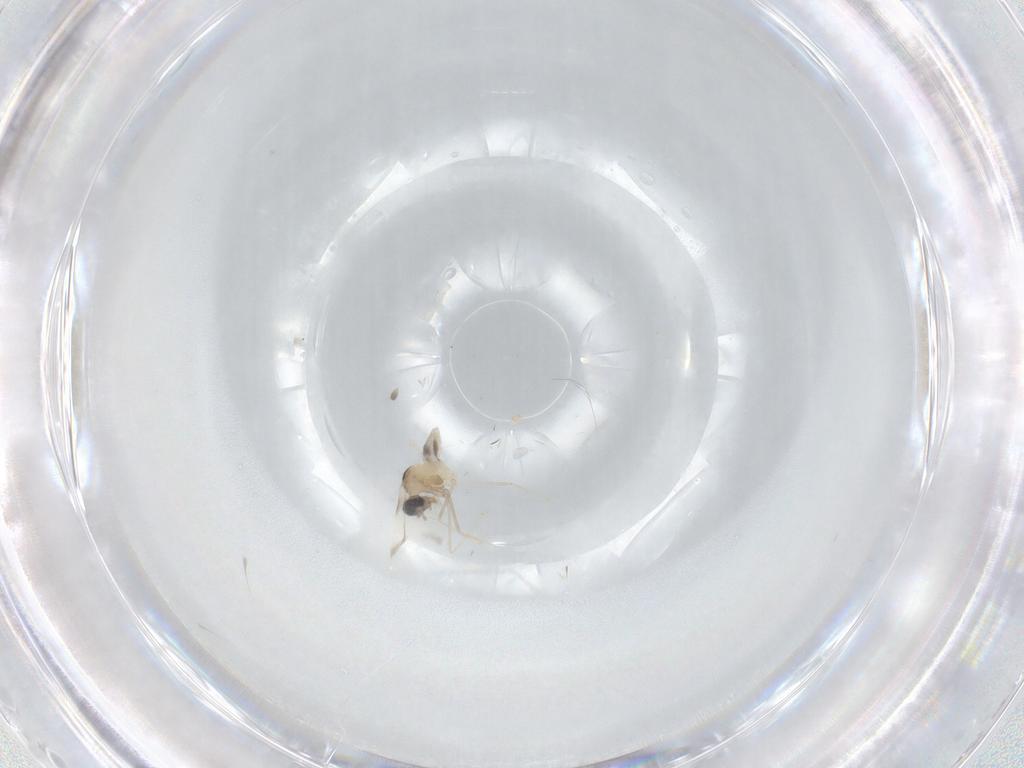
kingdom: Animalia
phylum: Arthropoda
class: Insecta
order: Diptera
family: Cecidomyiidae
